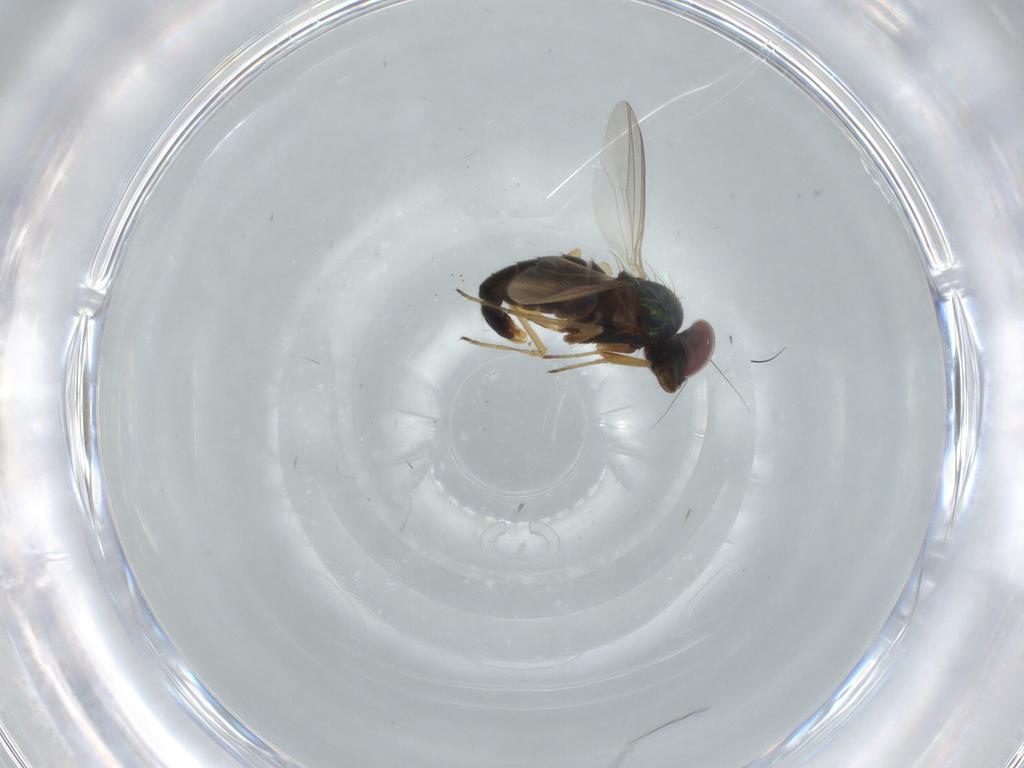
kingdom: Animalia
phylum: Arthropoda
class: Insecta
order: Diptera
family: Dolichopodidae
